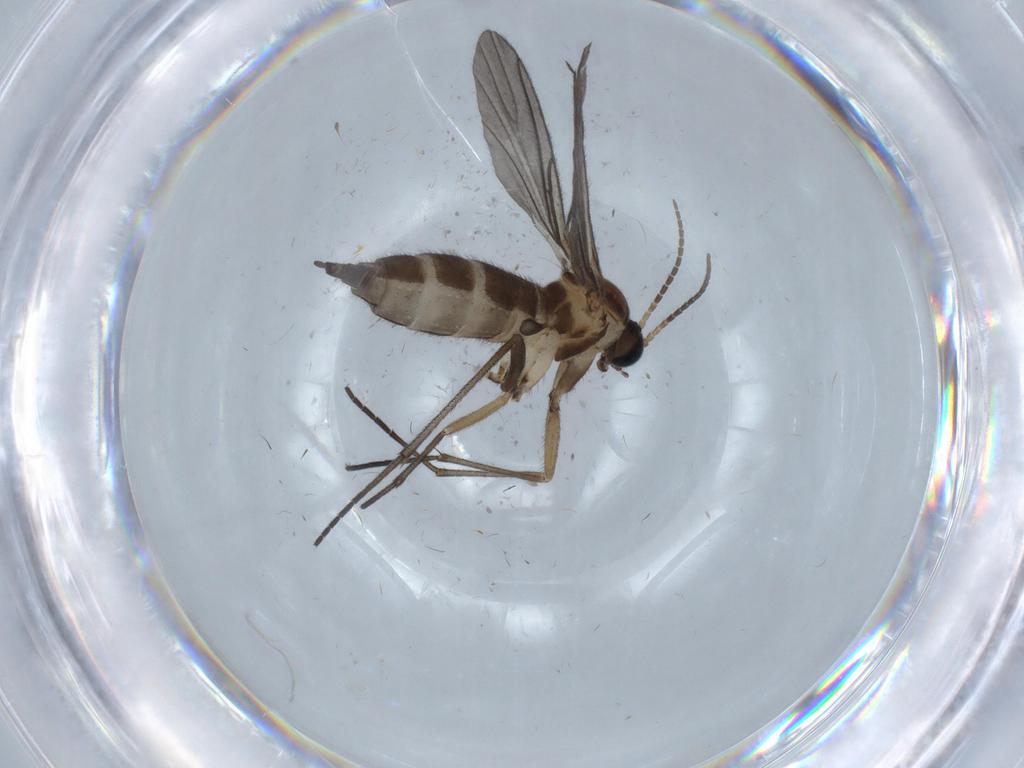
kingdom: Animalia
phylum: Arthropoda
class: Insecta
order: Diptera
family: Sciaridae
